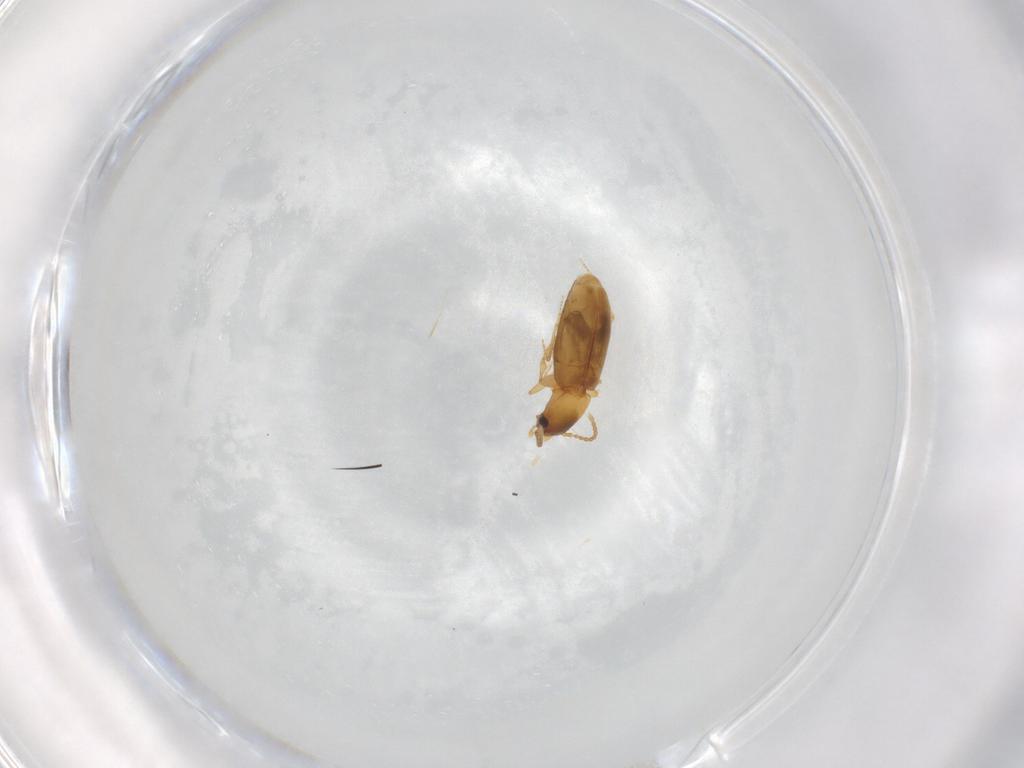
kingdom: Animalia
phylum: Arthropoda
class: Insecta
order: Coleoptera
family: Carabidae
